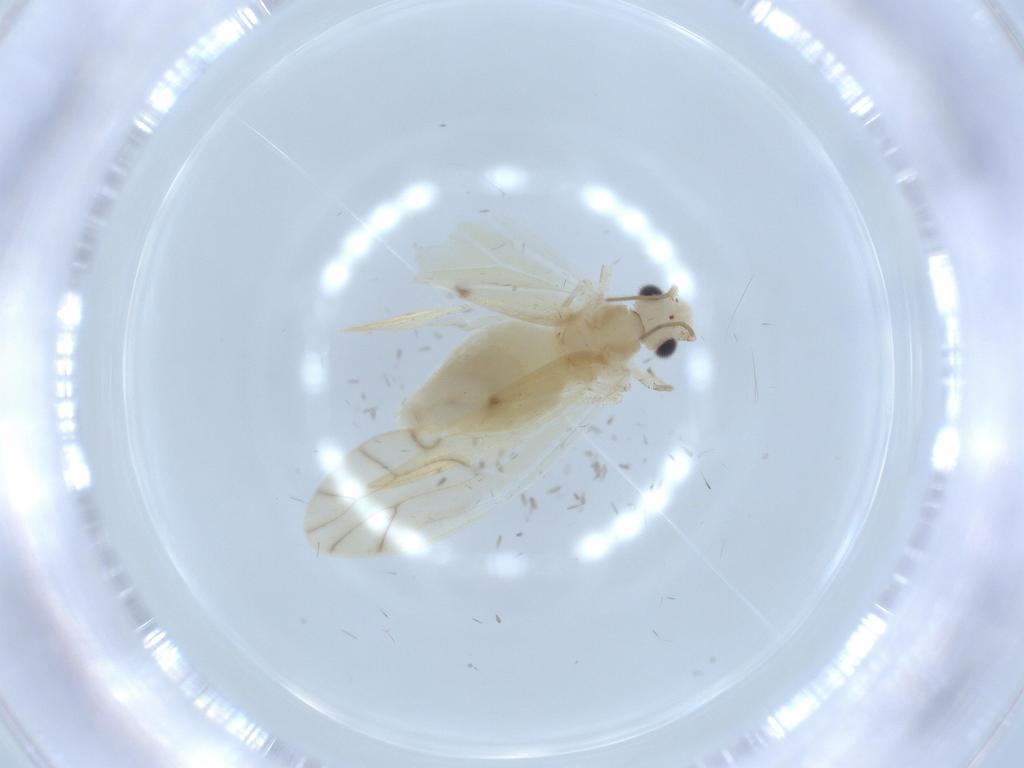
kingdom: Animalia
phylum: Arthropoda
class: Insecta
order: Psocodea
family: Caeciliusidae
